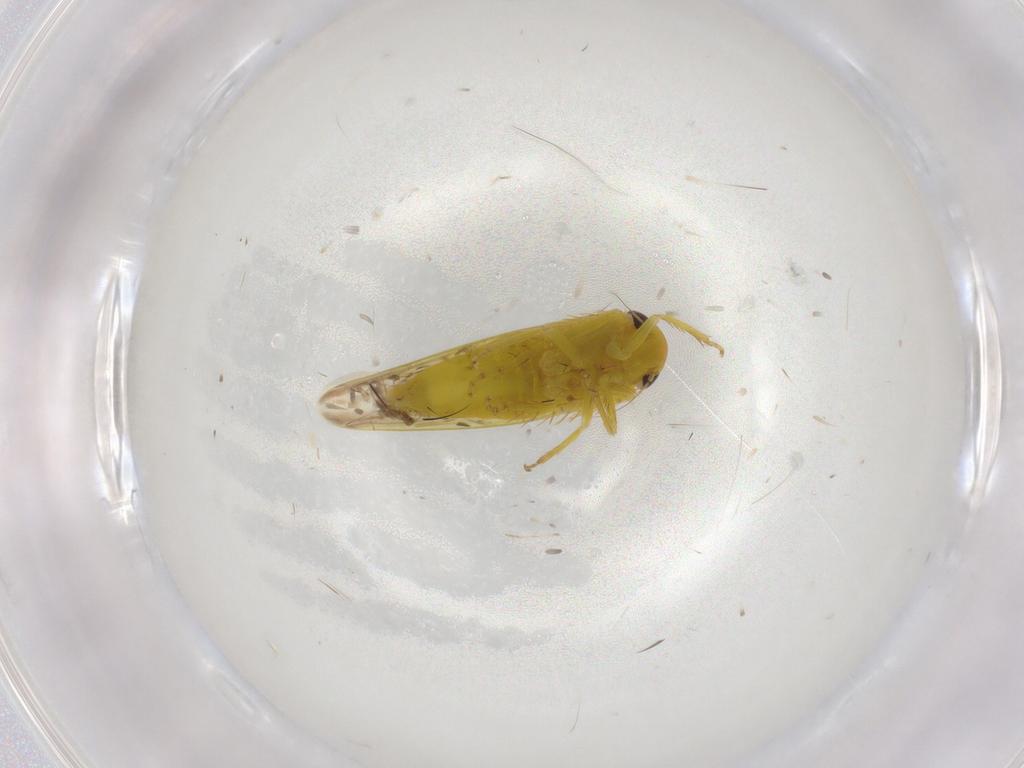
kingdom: Animalia
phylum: Arthropoda
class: Insecta
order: Hemiptera
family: Cicadellidae
